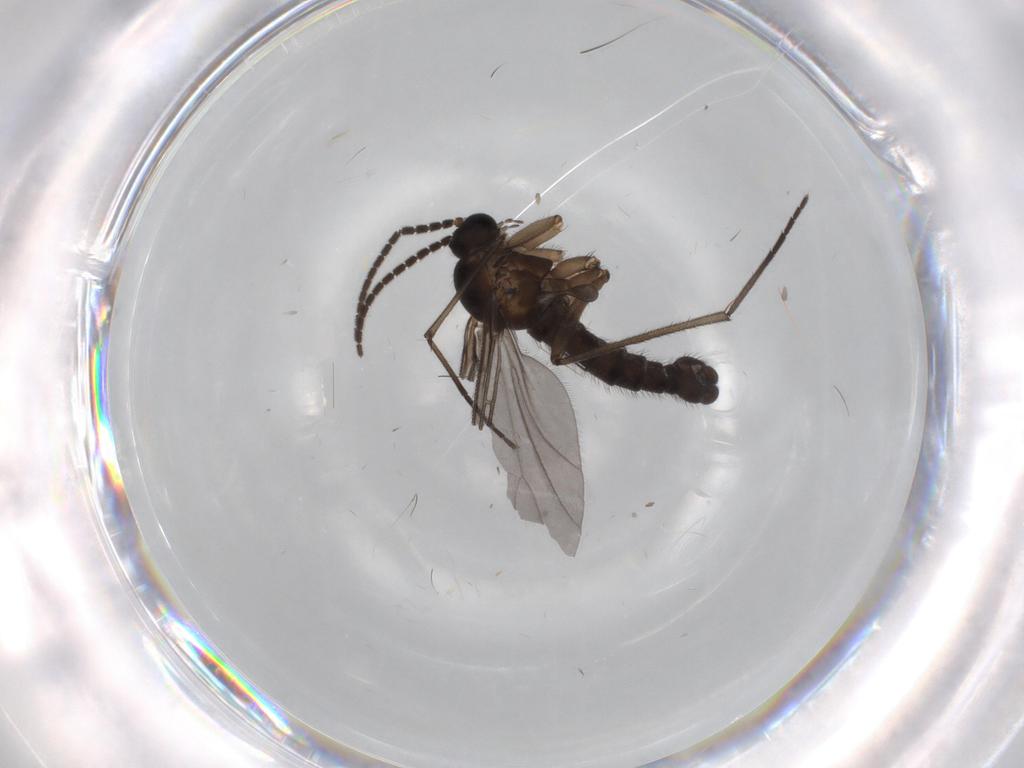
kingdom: Animalia
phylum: Arthropoda
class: Insecta
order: Diptera
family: Sciaridae
